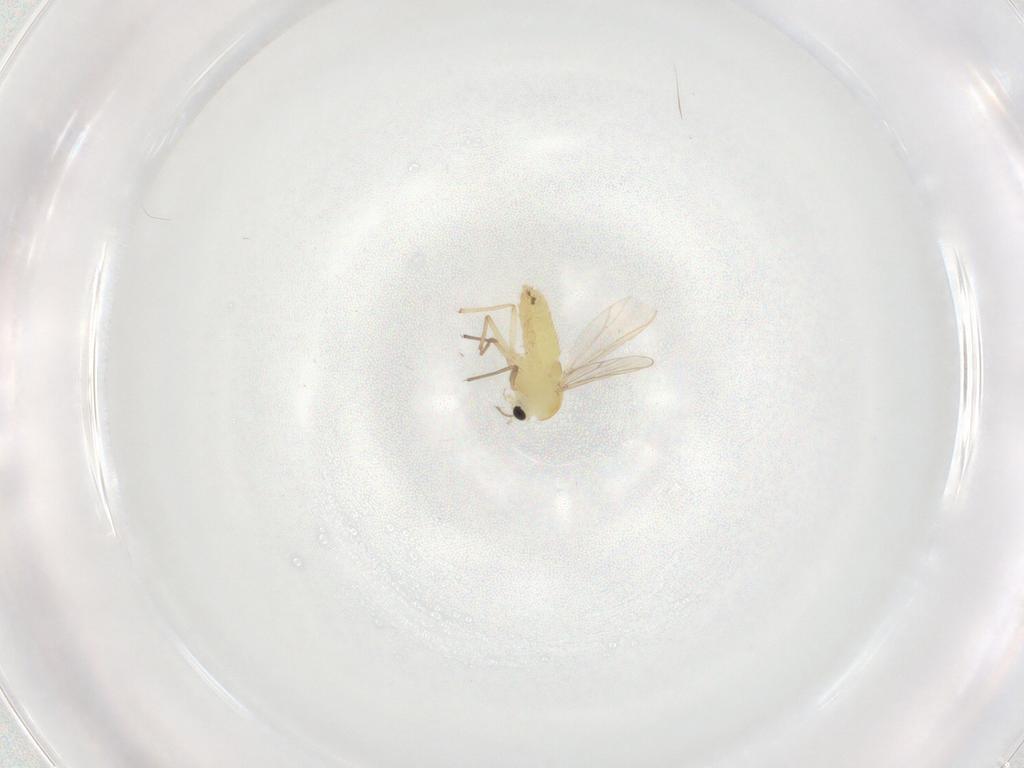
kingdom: Animalia
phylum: Arthropoda
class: Insecta
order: Diptera
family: Chironomidae
